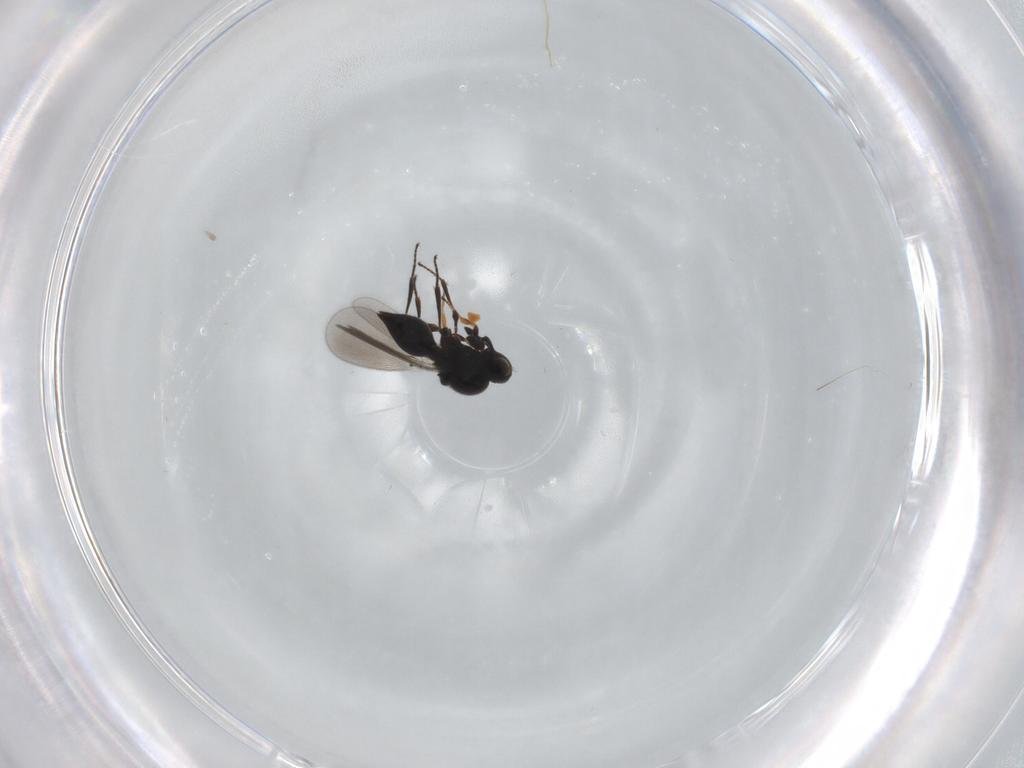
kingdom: Animalia
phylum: Arthropoda
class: Insecta
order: Hymenoptera
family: Platygastridae
